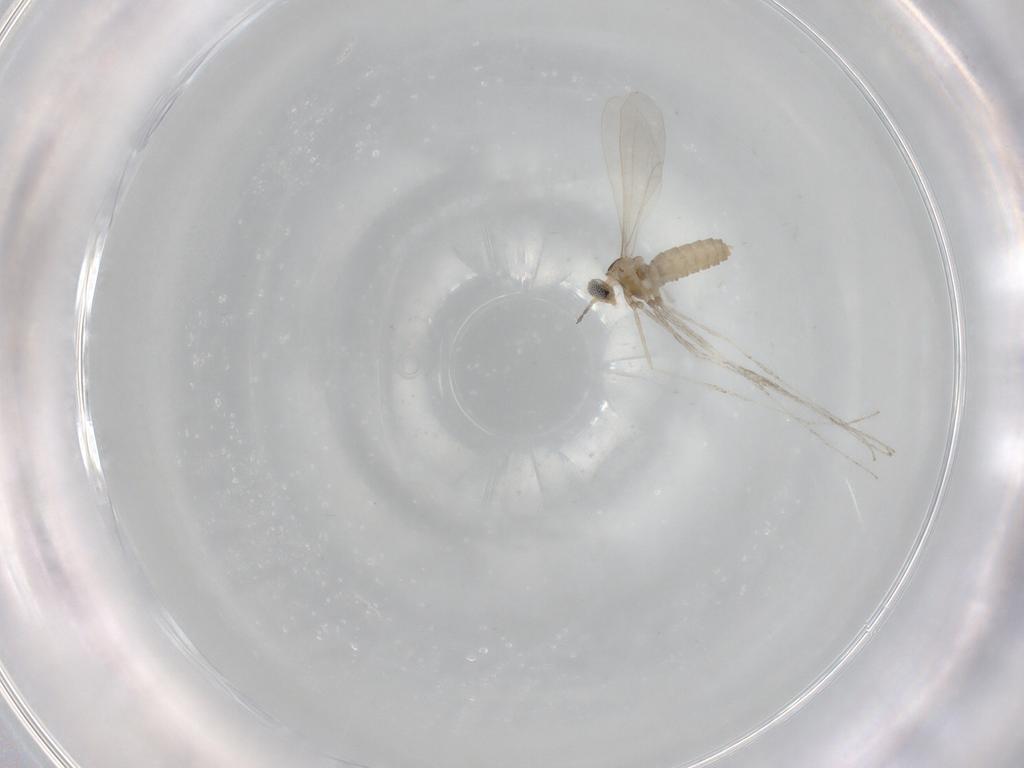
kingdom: Animalia
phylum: Arthropoda
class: Insecta
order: Diptera
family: Cecidomyiidae
